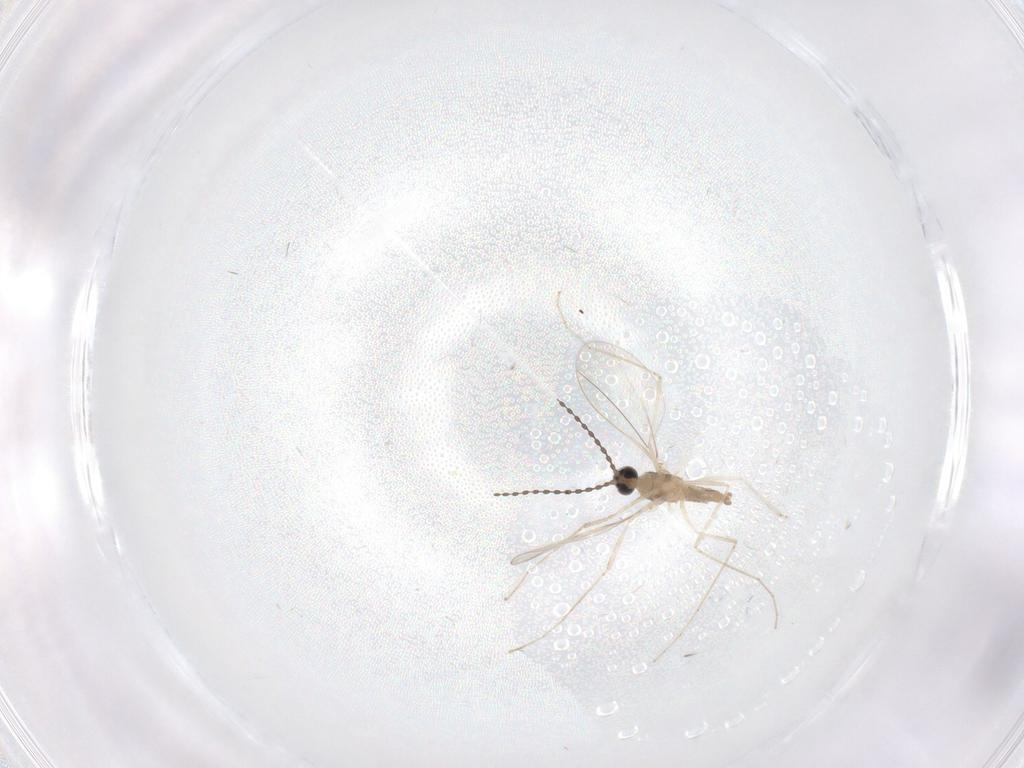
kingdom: Animalia
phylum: Arthropoda
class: Insecta
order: Diptera
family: Cecidomyiidae
